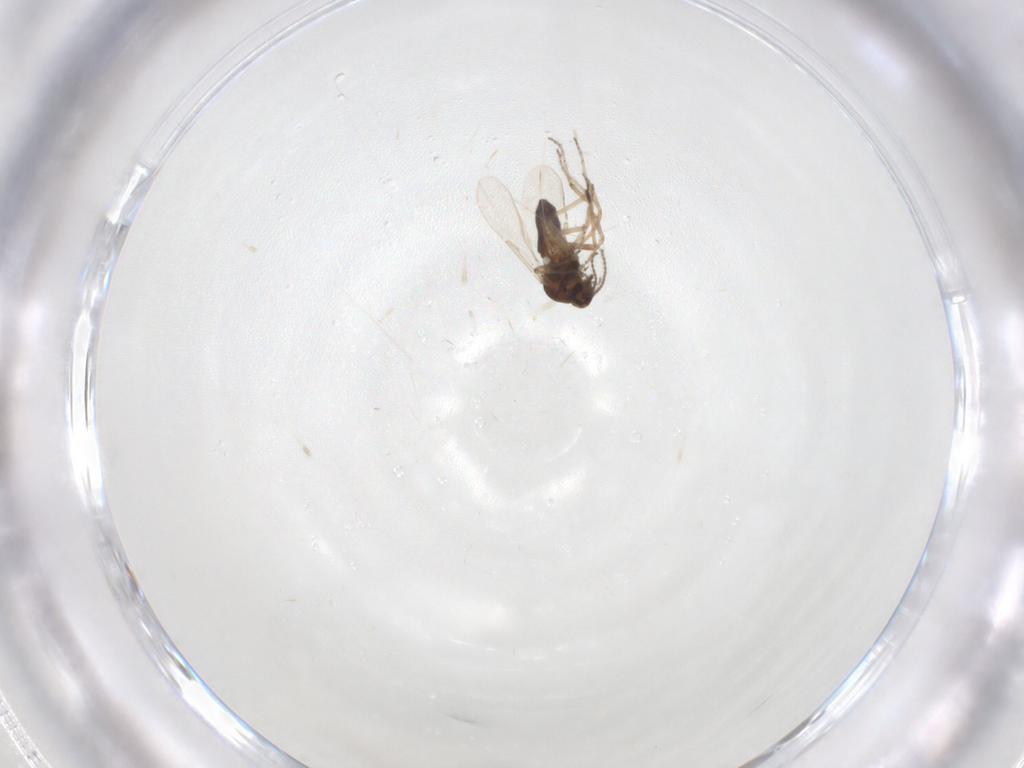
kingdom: Animalia
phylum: Arthropoda
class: Insecta
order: Diptera
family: Ceratopogonidae
